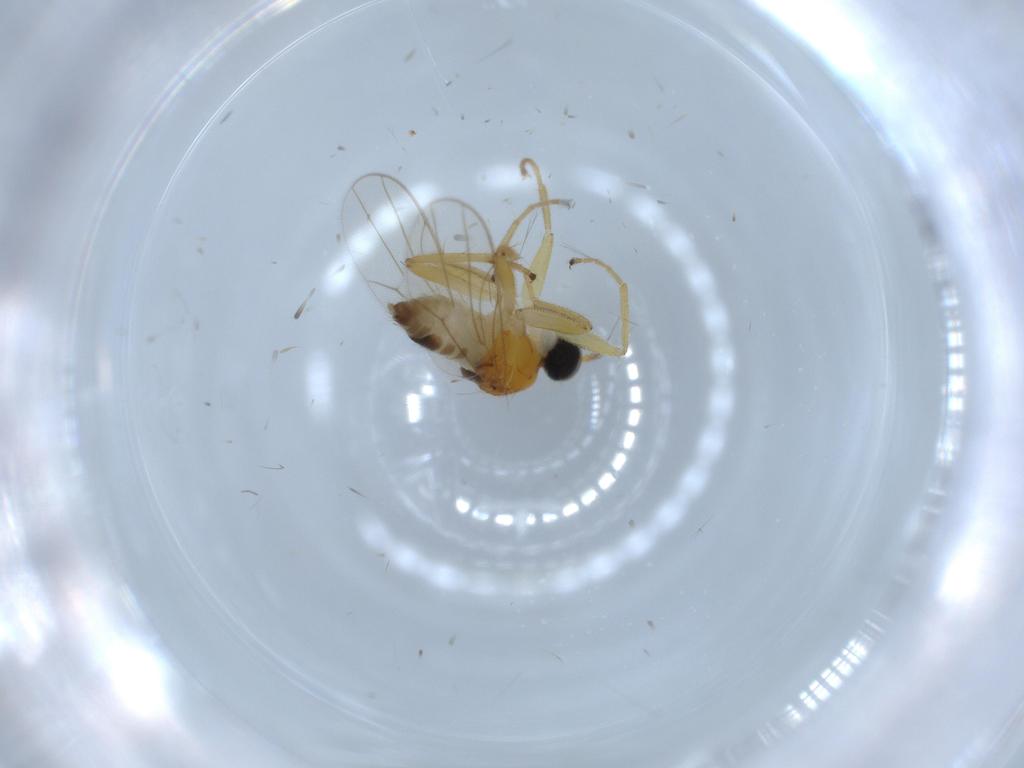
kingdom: Animalia
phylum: Arthropoda
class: Insecta
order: Diptera
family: Hybotidae
